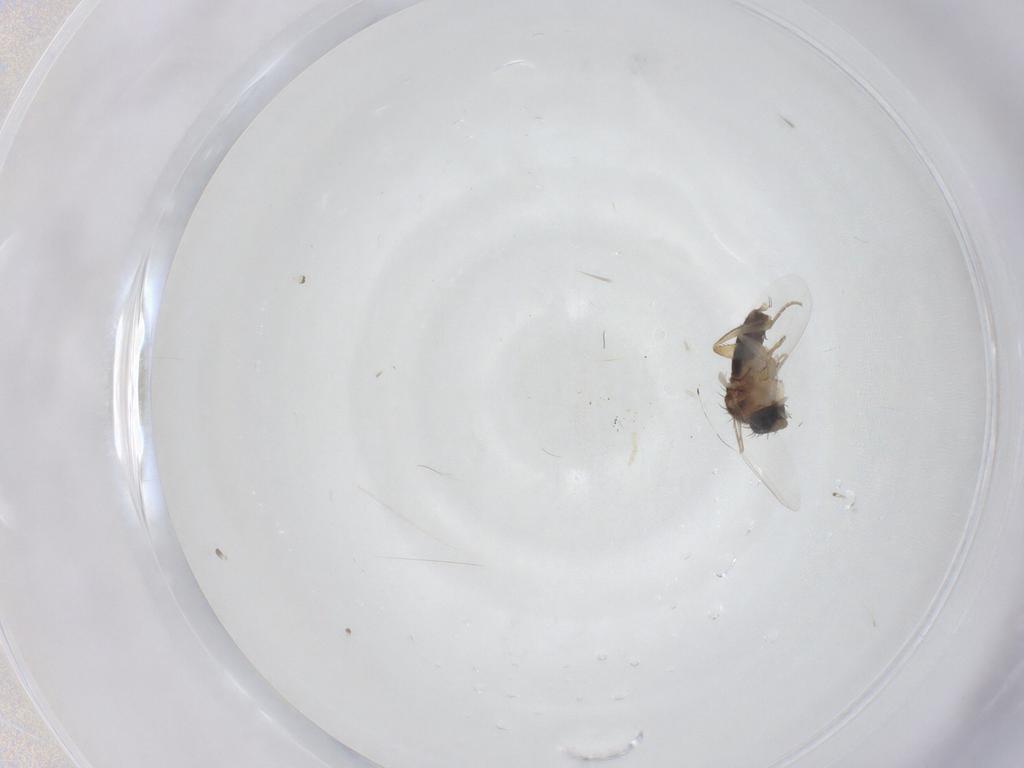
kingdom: Animalia
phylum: Arthropoda
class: Insecta
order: Diptera
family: Phoridae
